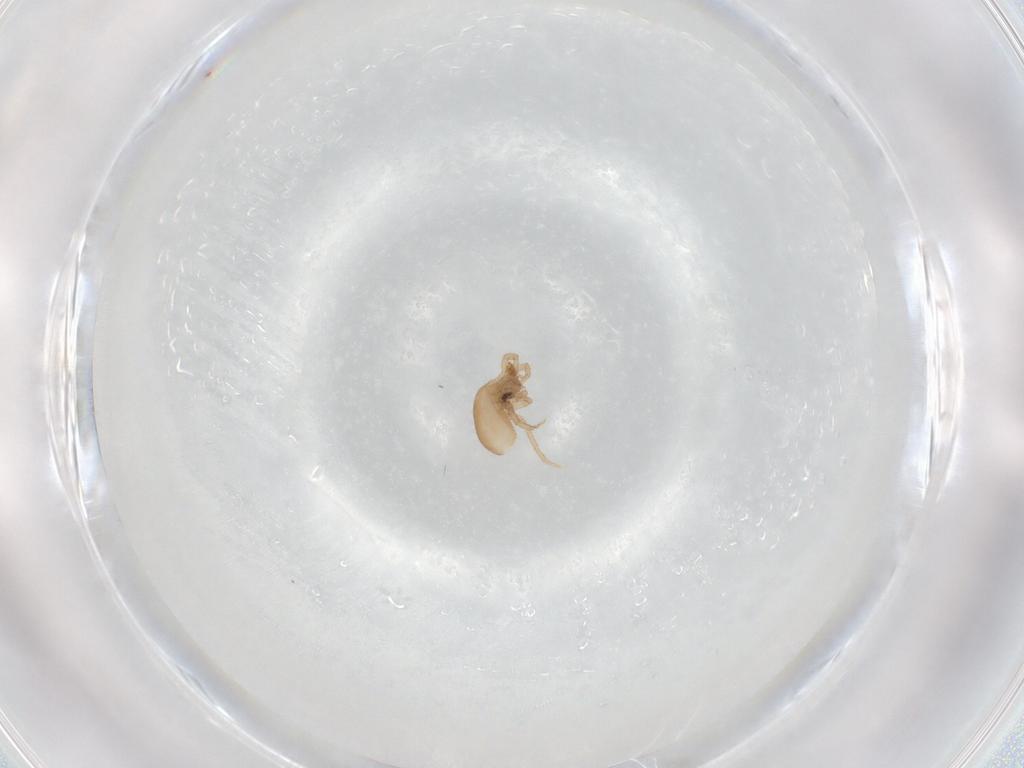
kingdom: Animalia
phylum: Arthropoda
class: Arachnida
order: Mesostigmata
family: Parasitidae
